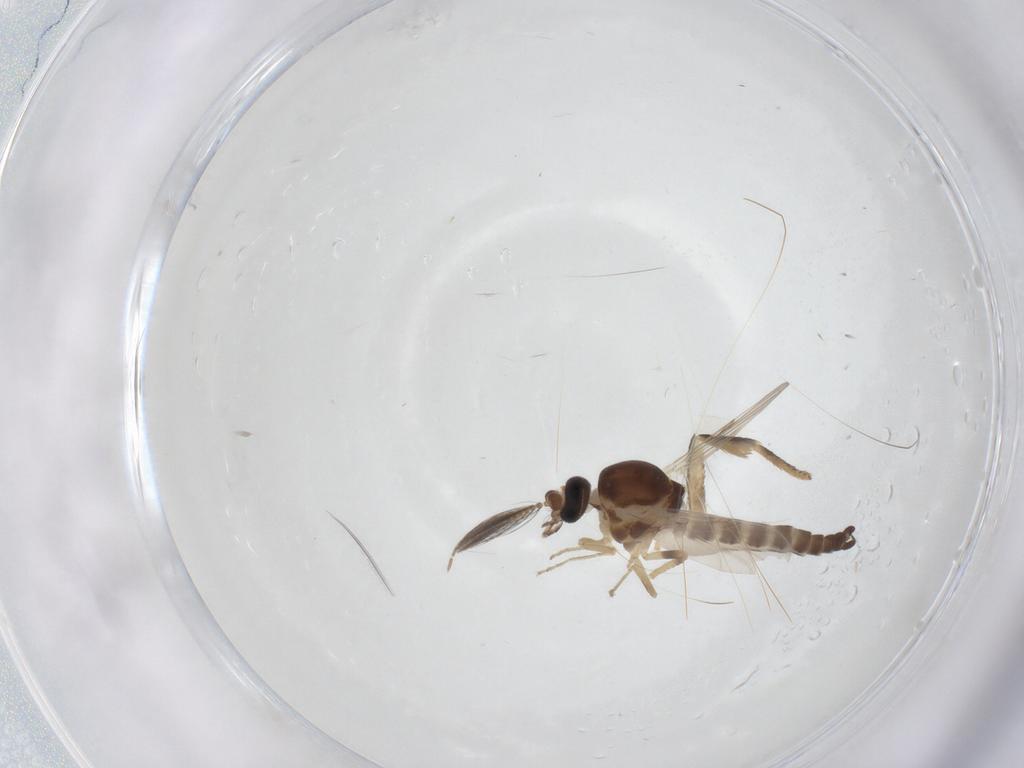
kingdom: Animalia
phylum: Arthropoda
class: Insecta
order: Diptera
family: Ceratopogonidae
